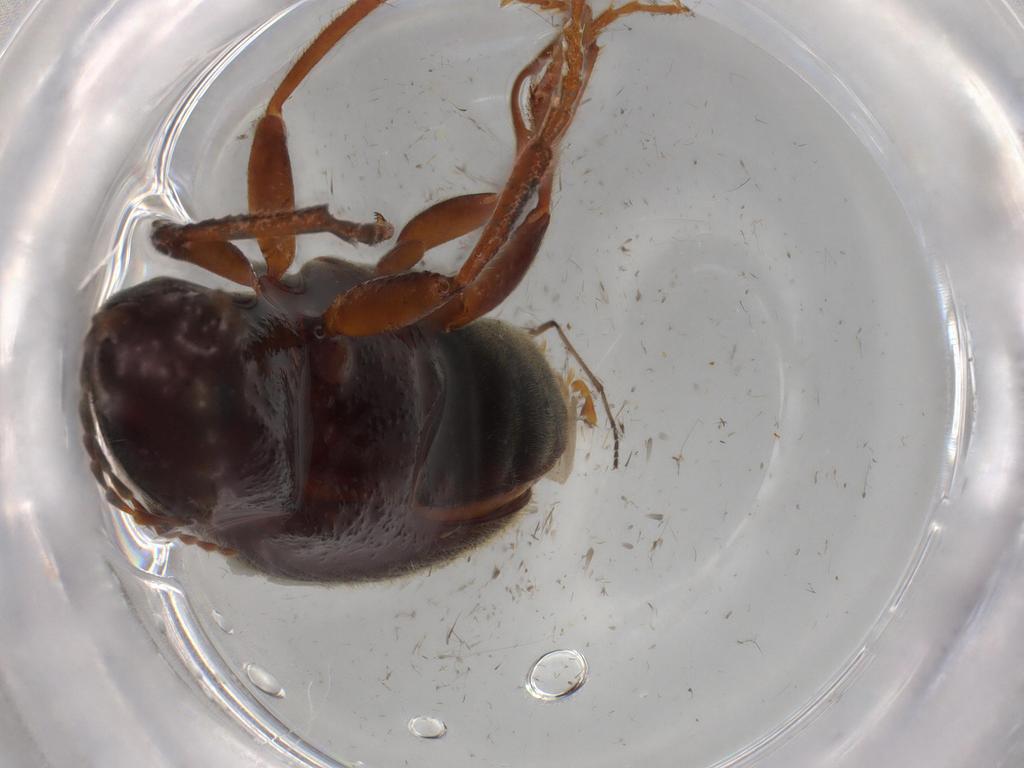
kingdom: Animalia
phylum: Arthropoda
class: Insecta
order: Coleoptera
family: Elateridae
